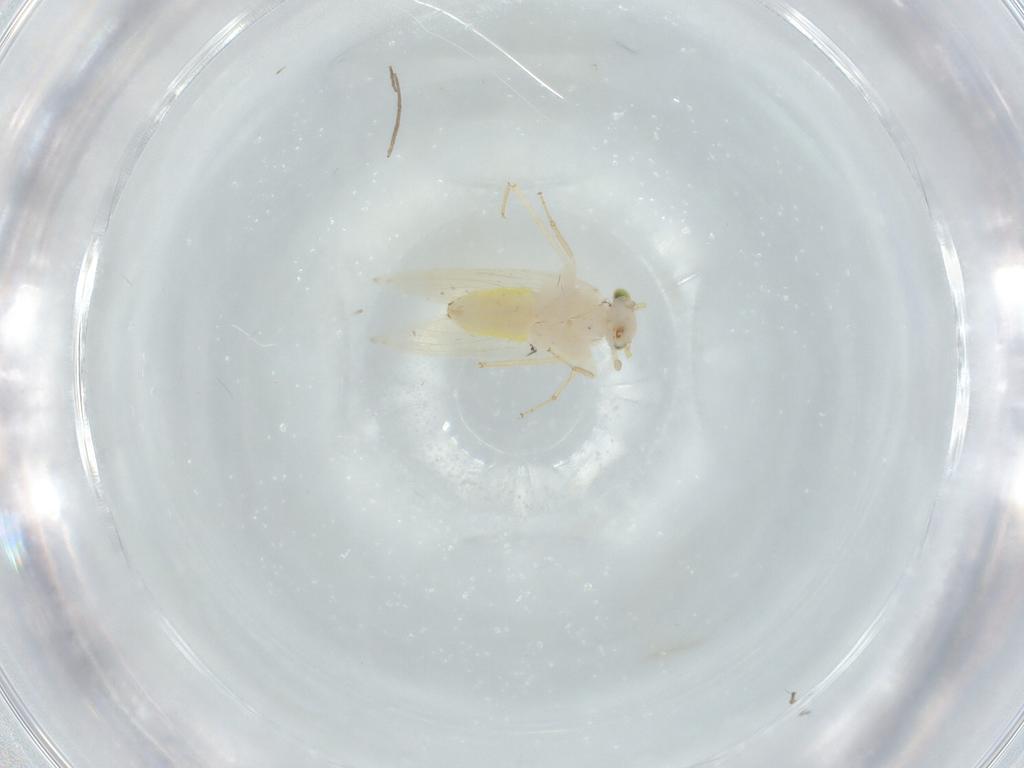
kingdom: Animalia
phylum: Arthropoda
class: Insecta
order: Psocodea
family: Lepidopsocidae
